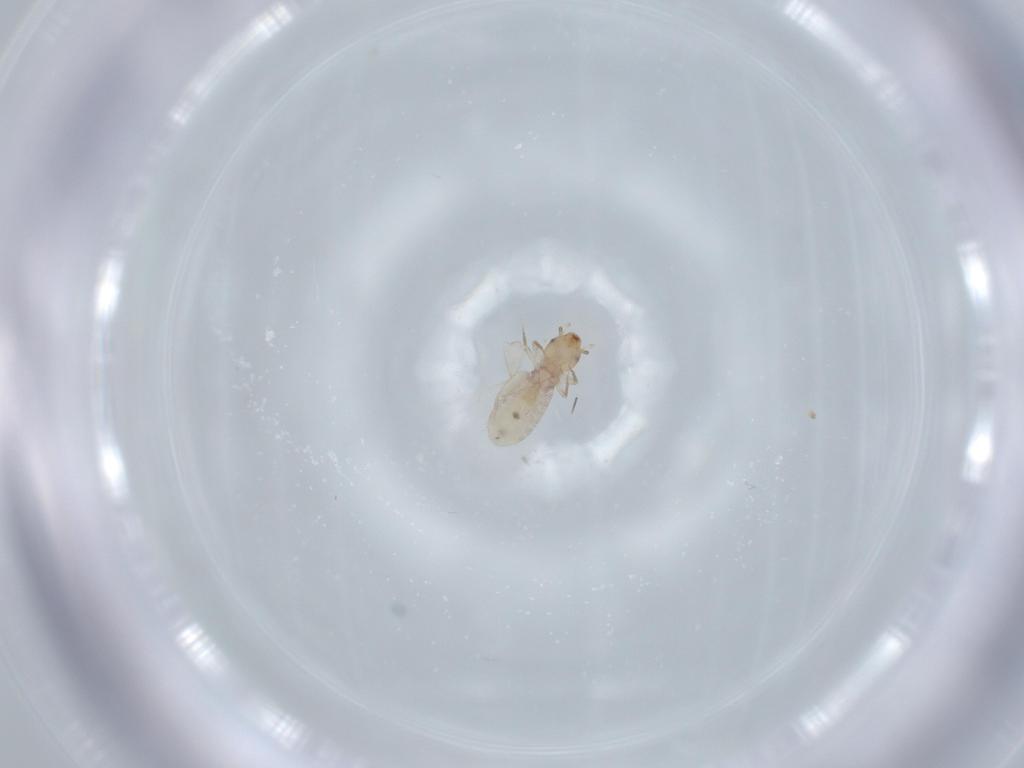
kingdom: Animalia
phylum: Arthropoda
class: Insecta
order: Psocodea
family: Liposcelididae
